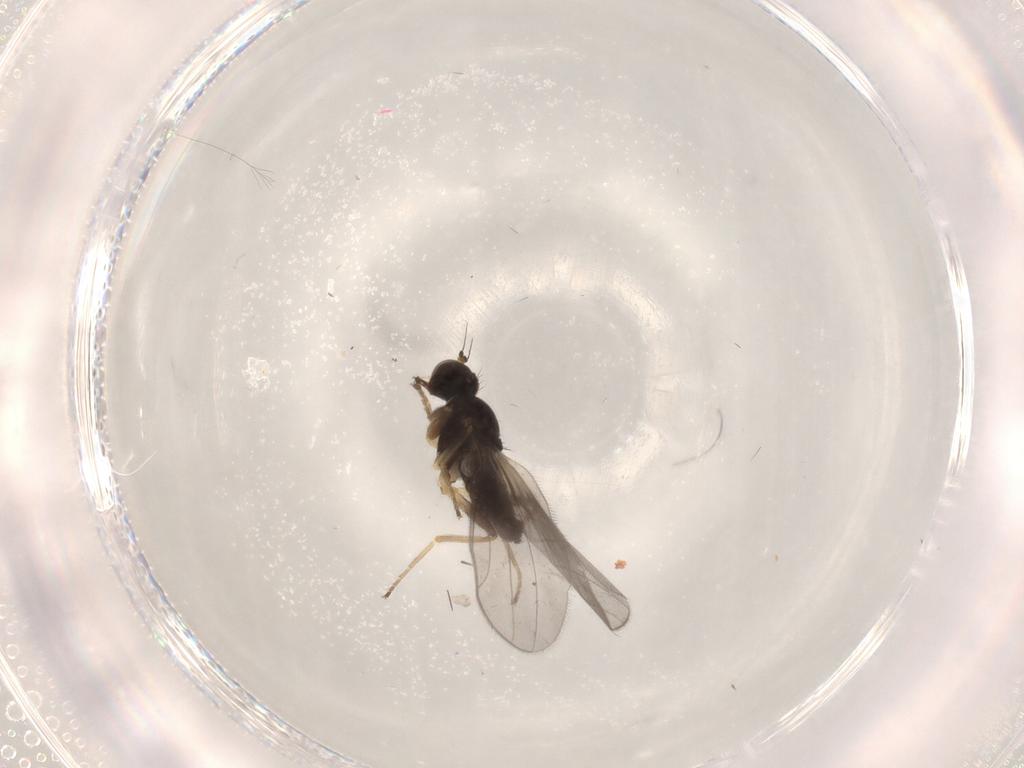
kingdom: Animalia
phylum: Arthropoda
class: Insecta
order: Diptera
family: Hybotidae
